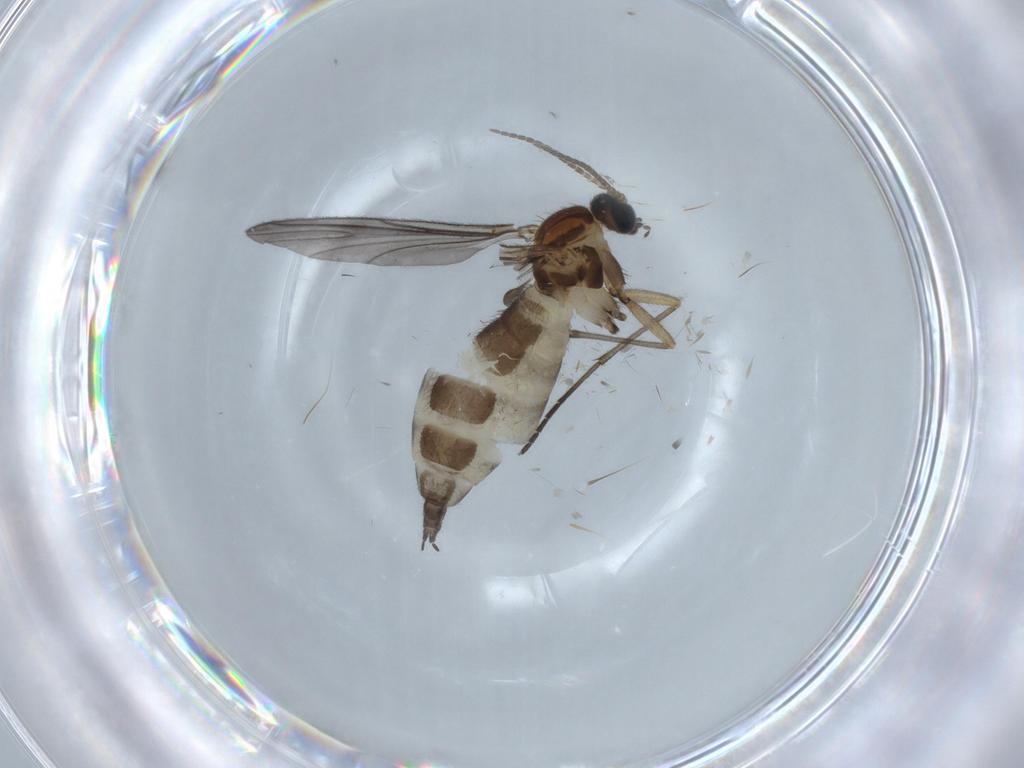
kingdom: Animalia
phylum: Arthropoda
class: Insecta
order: Diptera
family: Sciaridae
